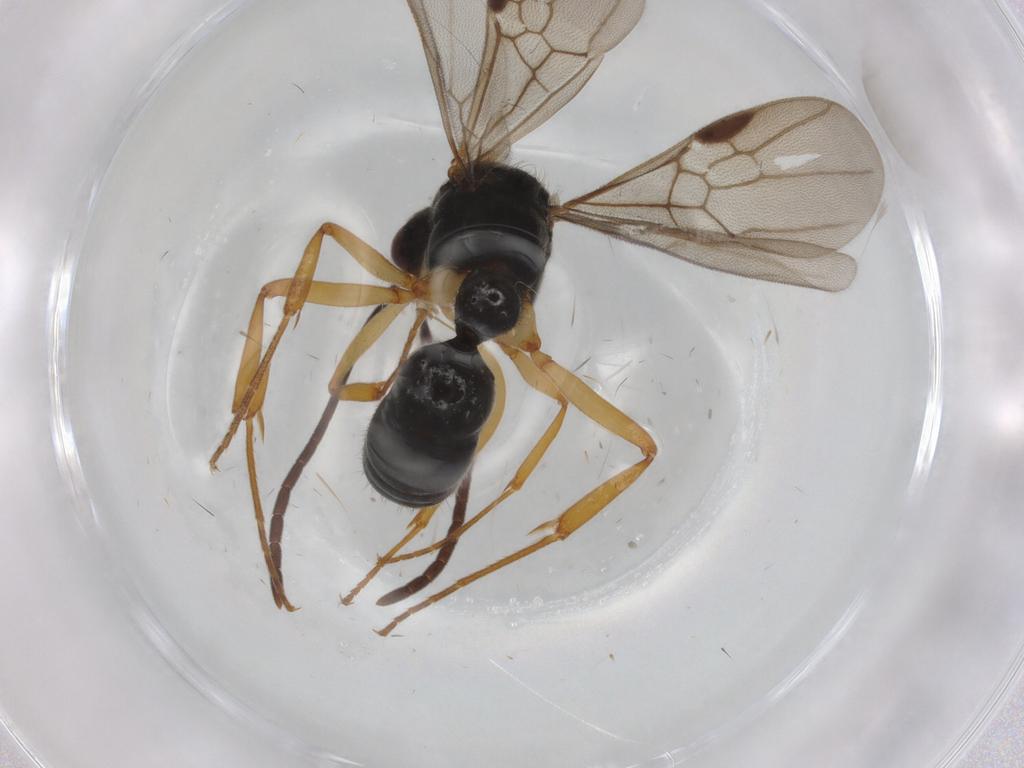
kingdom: Animalia
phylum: Arthropoda
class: Insecta
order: Hymenoptera
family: Formicidae
